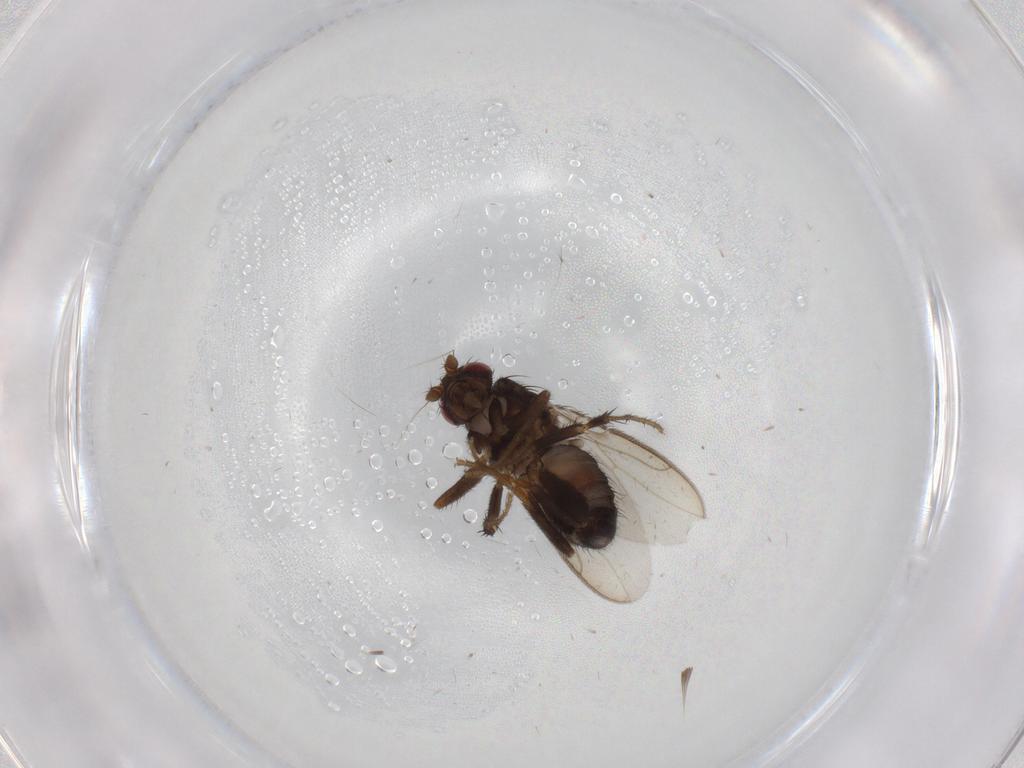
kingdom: Animalia
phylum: Arthropoda
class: Insecta
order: Diptera
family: Sphaeroceridae
